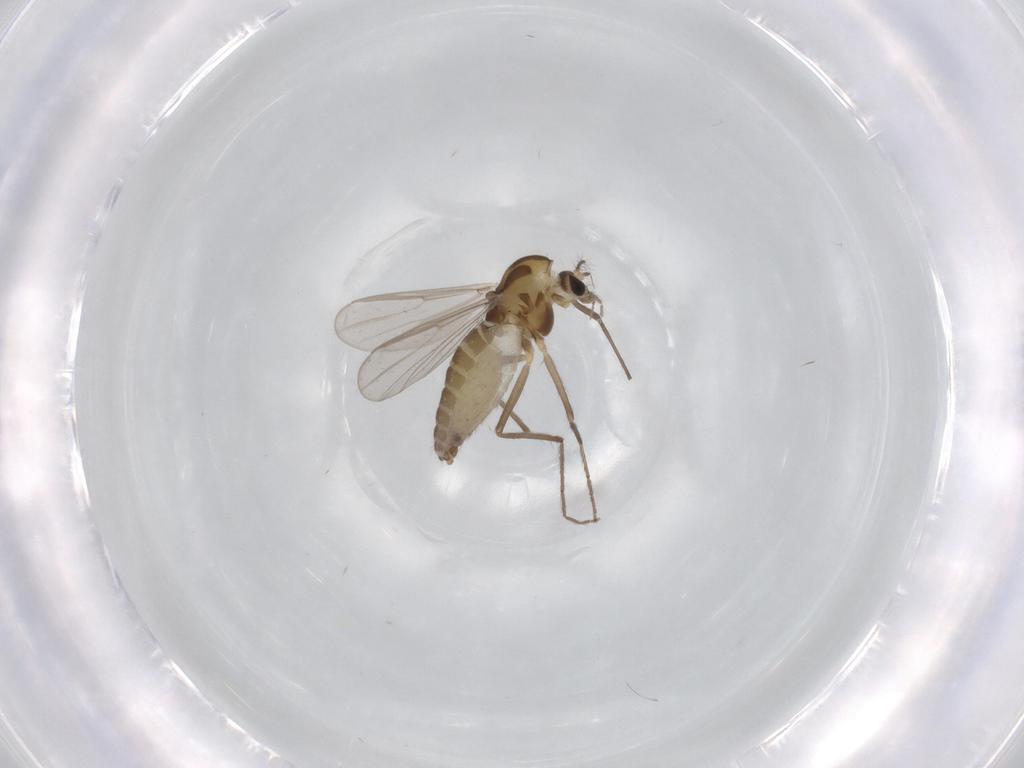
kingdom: Animalia
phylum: Arthropoda
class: Insecta
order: Diptera
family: Chironomidae
